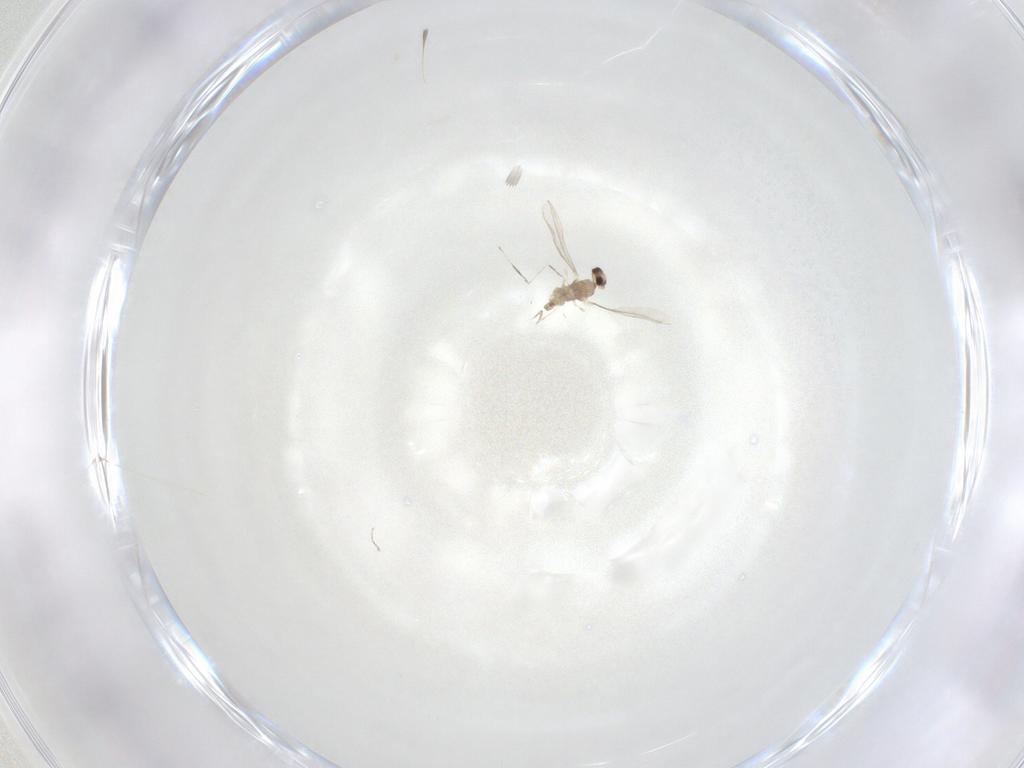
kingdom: Animalia
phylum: Arthropoda
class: Insecta
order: Diptera
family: Cecidomyiidae
